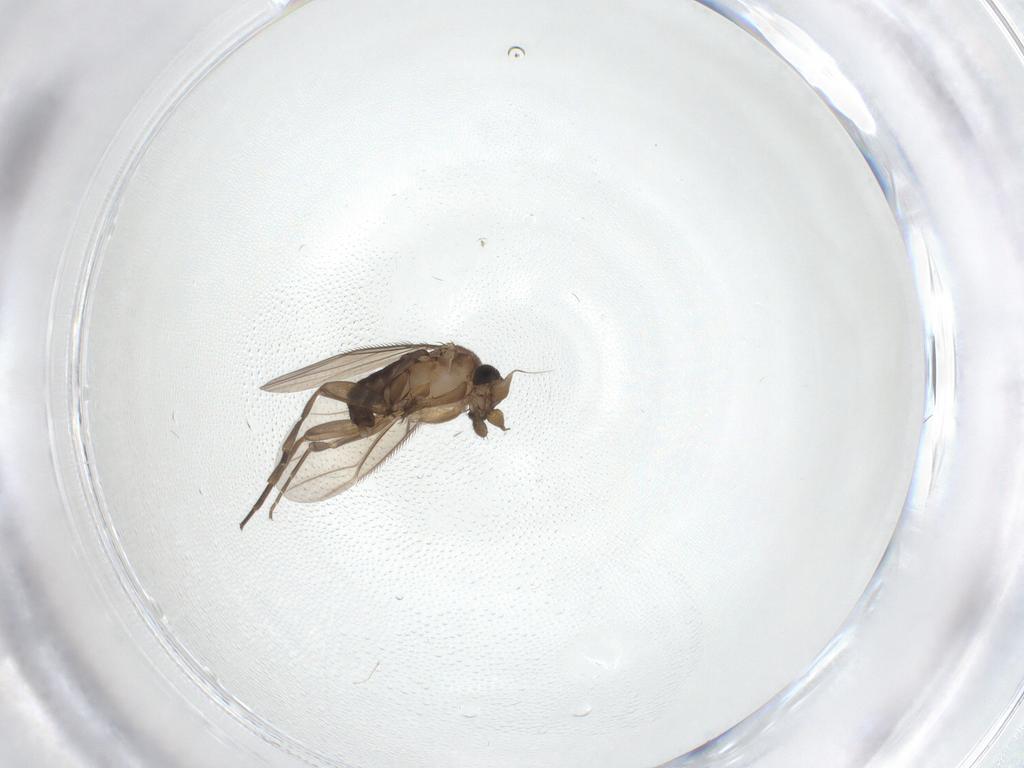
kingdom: Animalia
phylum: Arthropoda
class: Insecta
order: Diptera
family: Phoridae
